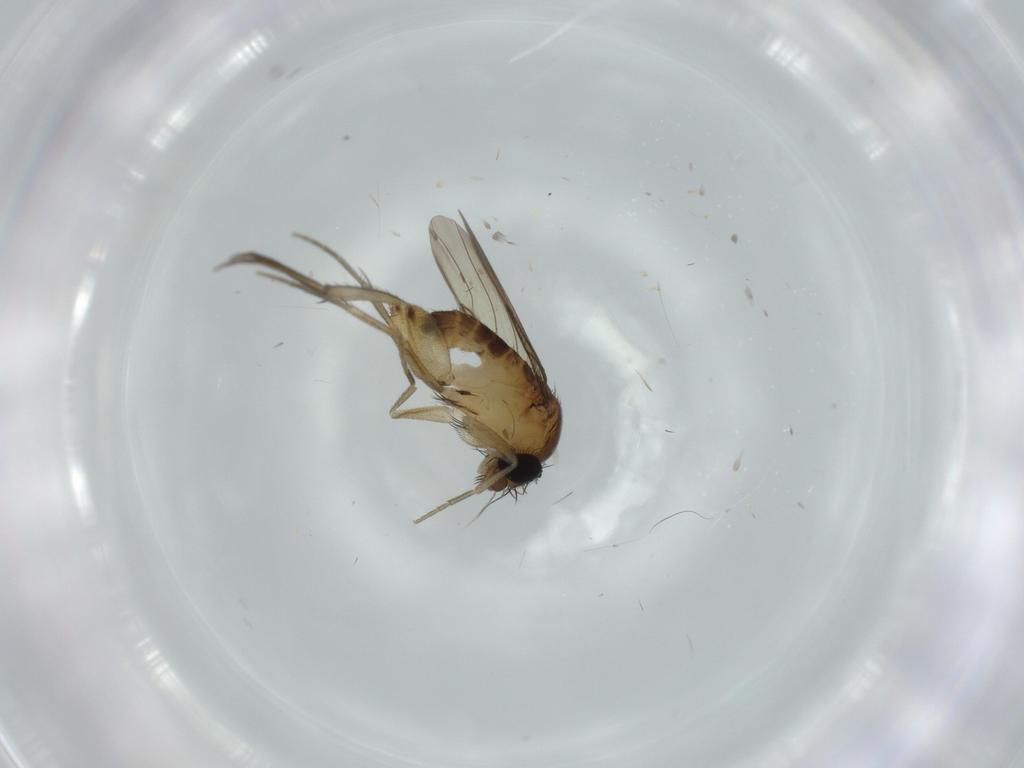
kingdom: Animalia
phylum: Arthropoda
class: Insecta
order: Diptera
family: Phoridae
